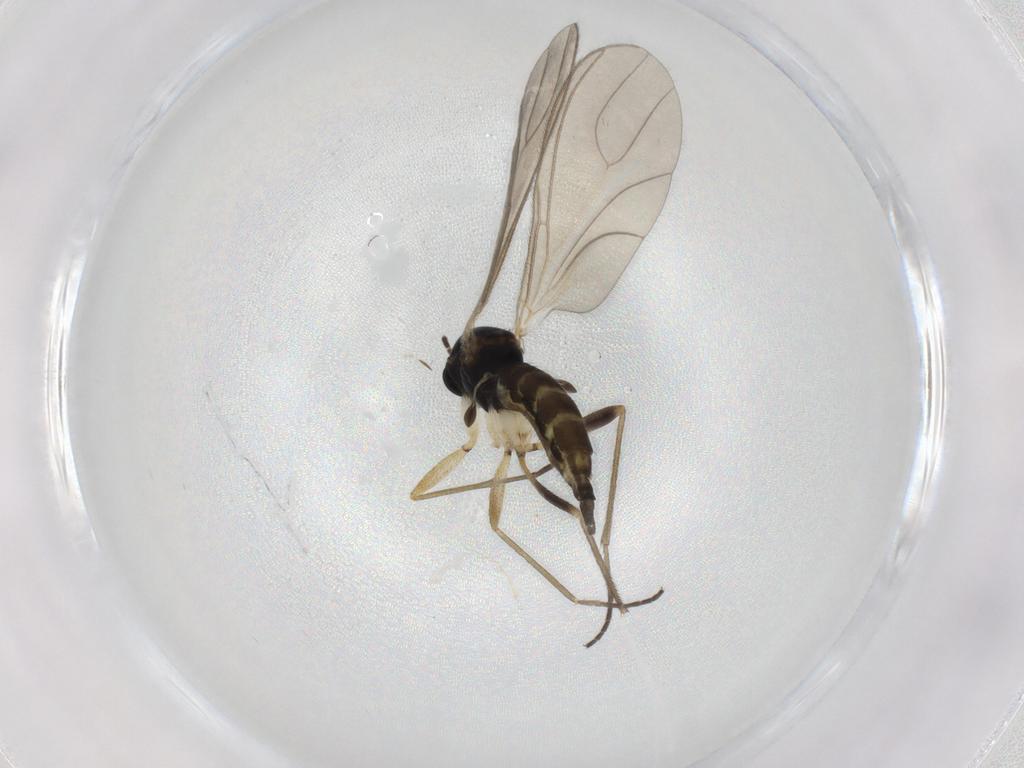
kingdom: Animalia
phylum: Arthropoda
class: Insecta
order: Diptera
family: Sciaridae
